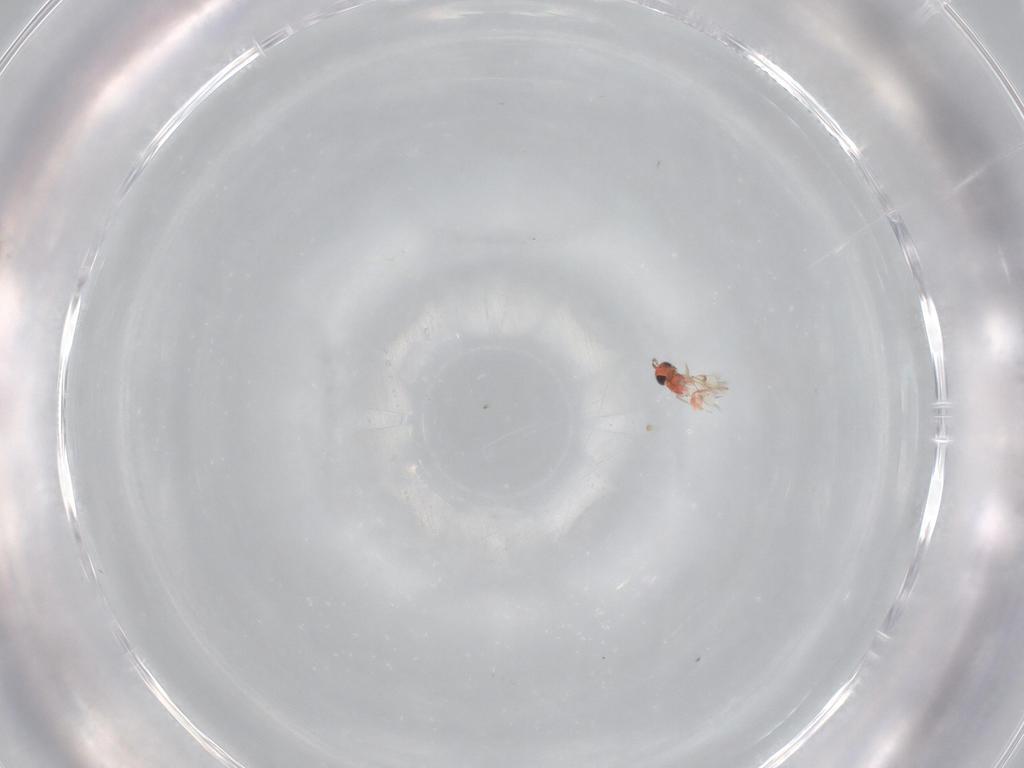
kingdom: Animalia
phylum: Arthropoda
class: Insecta
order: Hymenoptera
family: Trichogrammatidae
